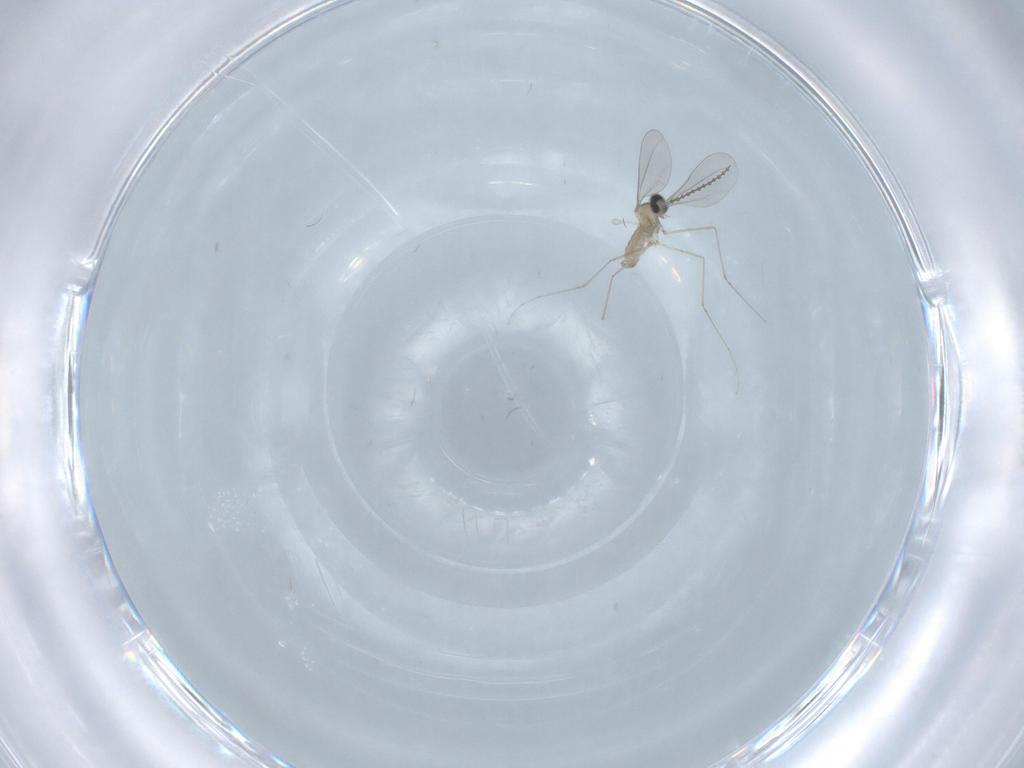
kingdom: Animalia
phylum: Arthropoda
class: Insecta
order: Diptera
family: Cecidomyiidae
